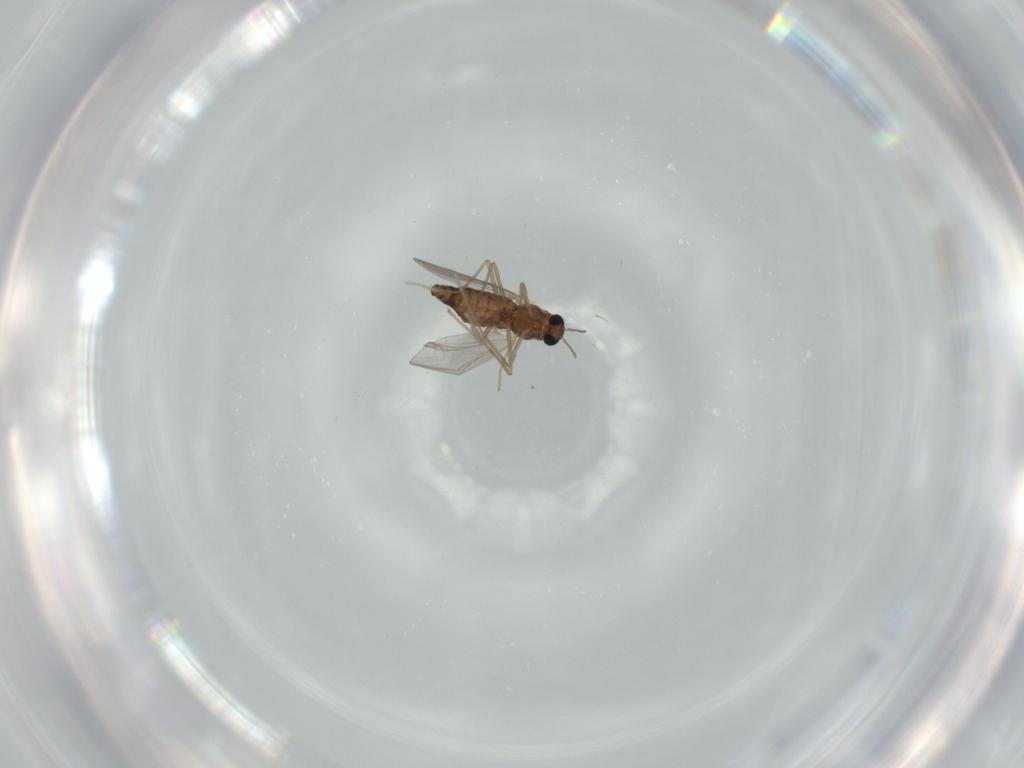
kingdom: Animalia
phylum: Arthropoda
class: Insecta
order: Diptera
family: Chironomidae
